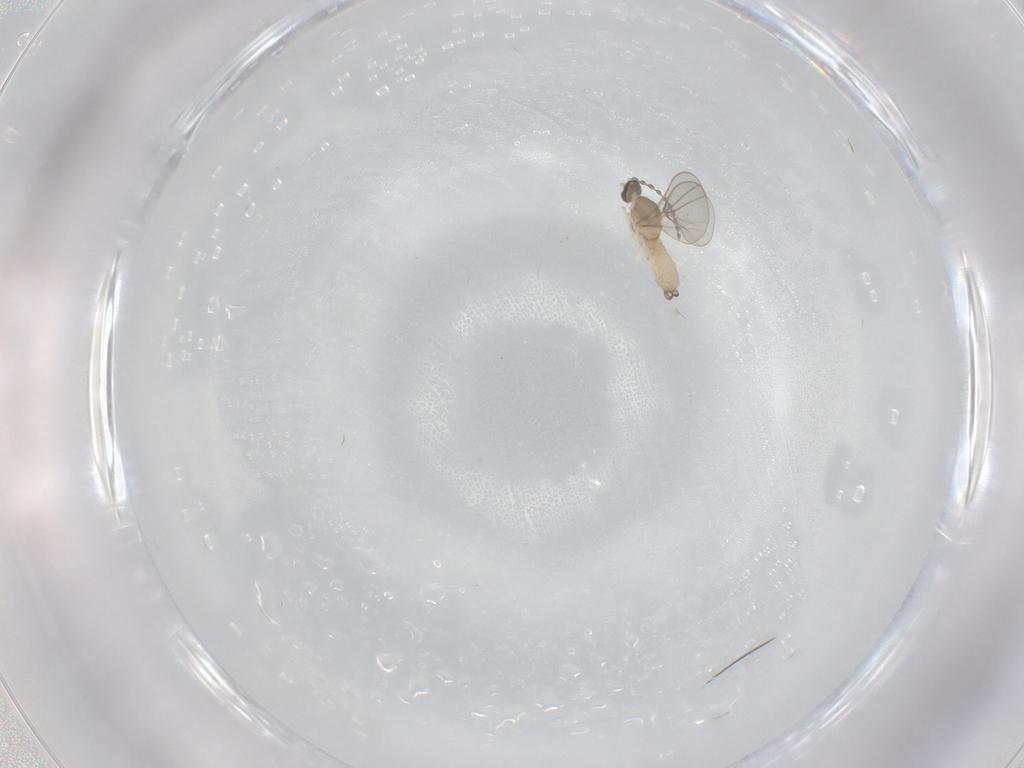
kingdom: Animalia
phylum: Arthropoda
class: Insecta
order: Diptera
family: Cecidomyiidae
